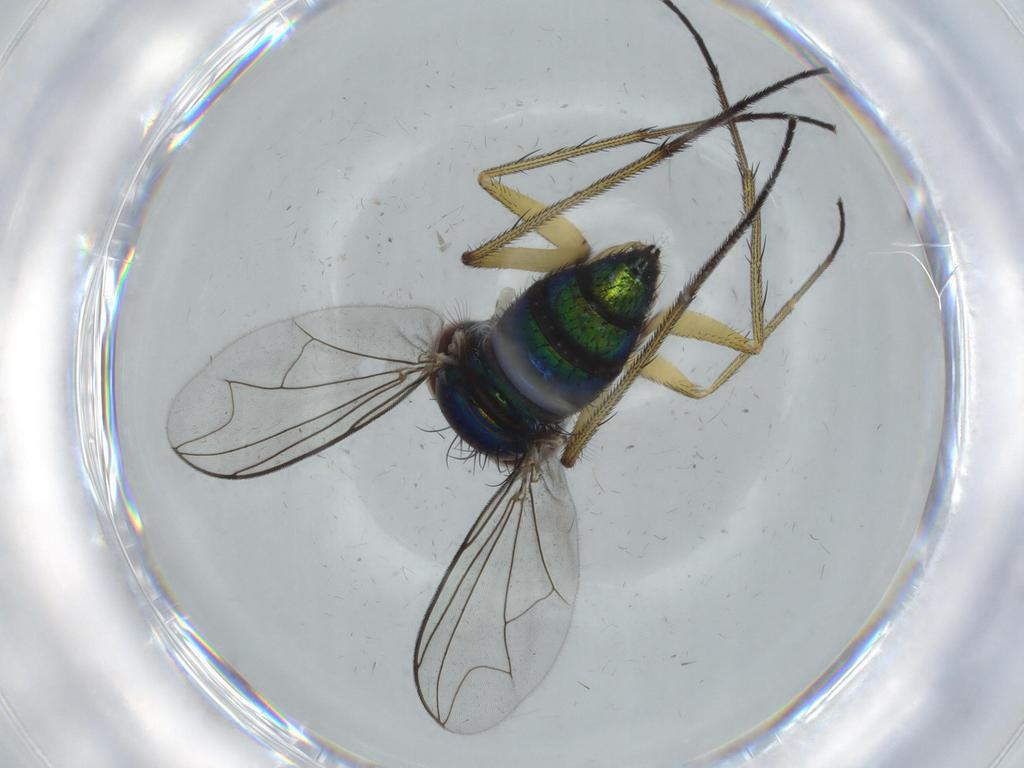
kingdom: Animalia
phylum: Arthropoda
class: Insecta
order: Diptera
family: Dolichopodidae
